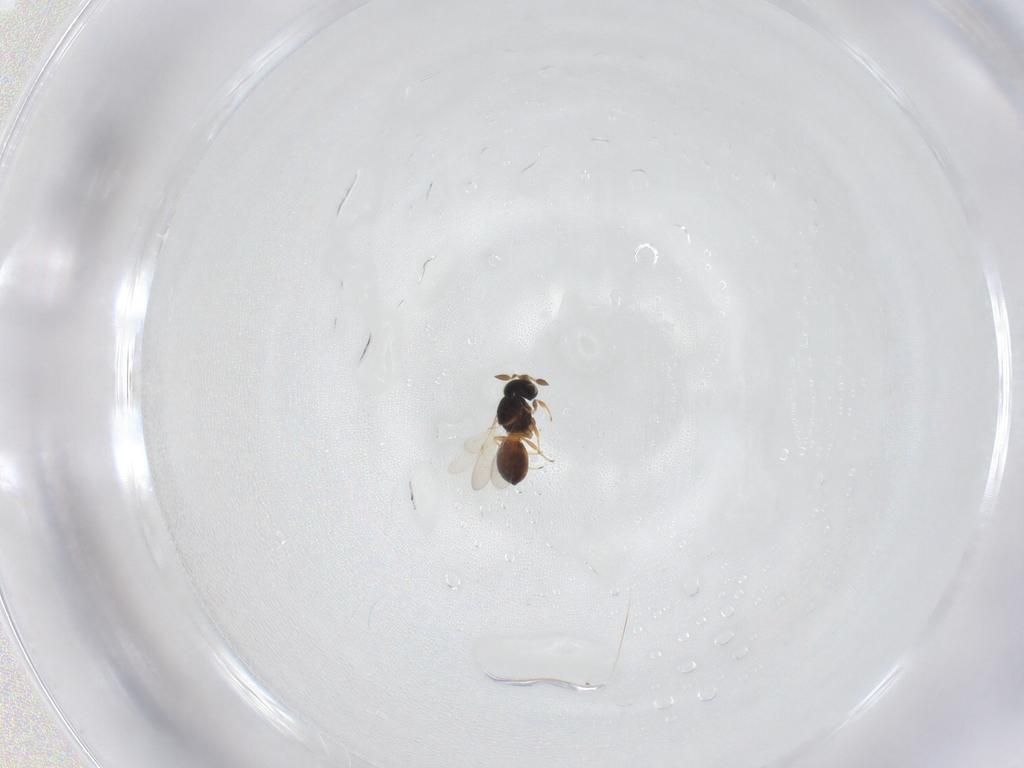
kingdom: Animalia
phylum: Arthropoda
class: Insecta
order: Hymenoptera
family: Scelionidae
